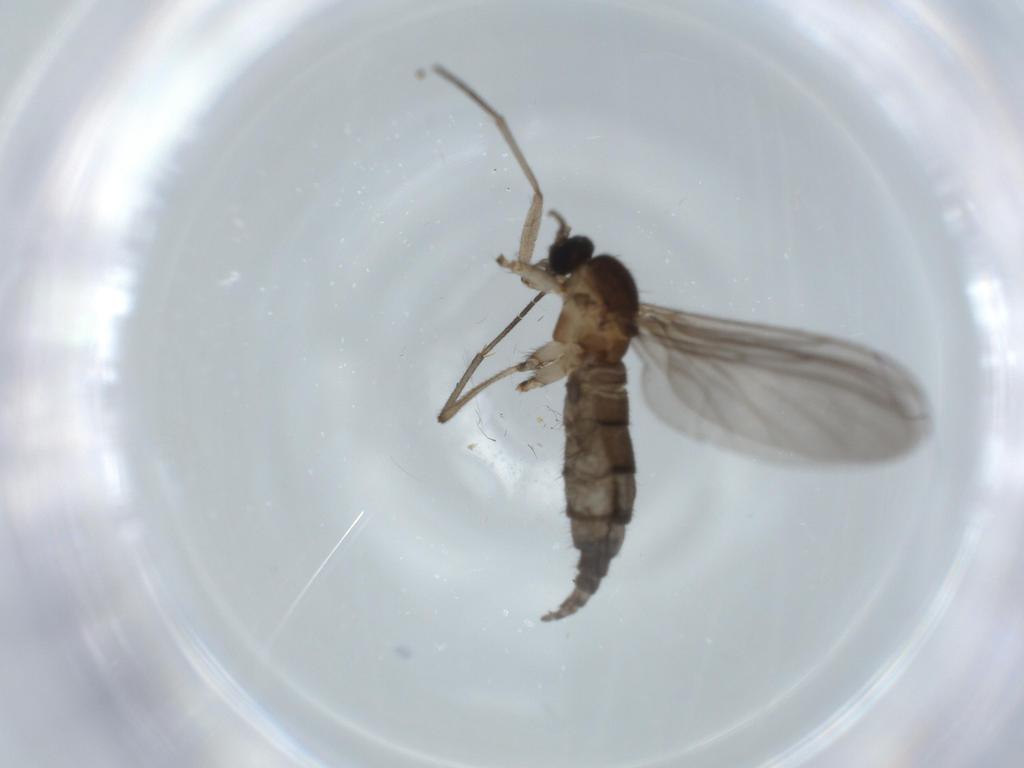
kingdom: Animalia
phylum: Arthropoda
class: Insecta
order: Diptera
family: Sciaridae
